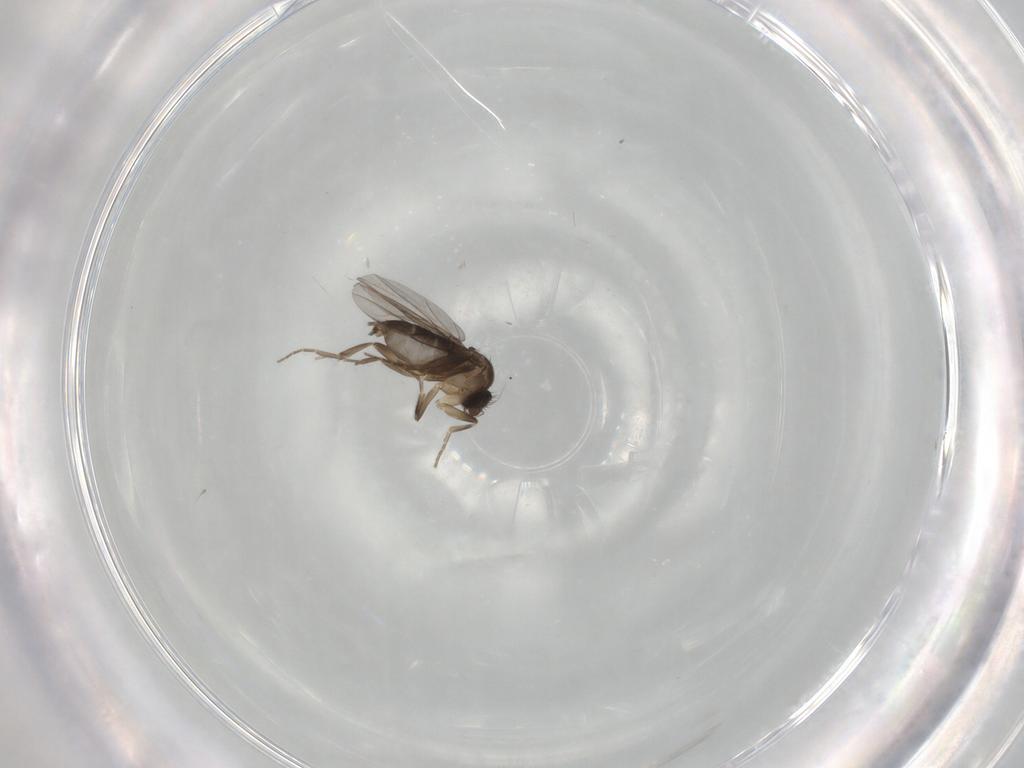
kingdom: Animalia
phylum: Arthropoda
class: Insecta
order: Diptera
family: Phoridae
